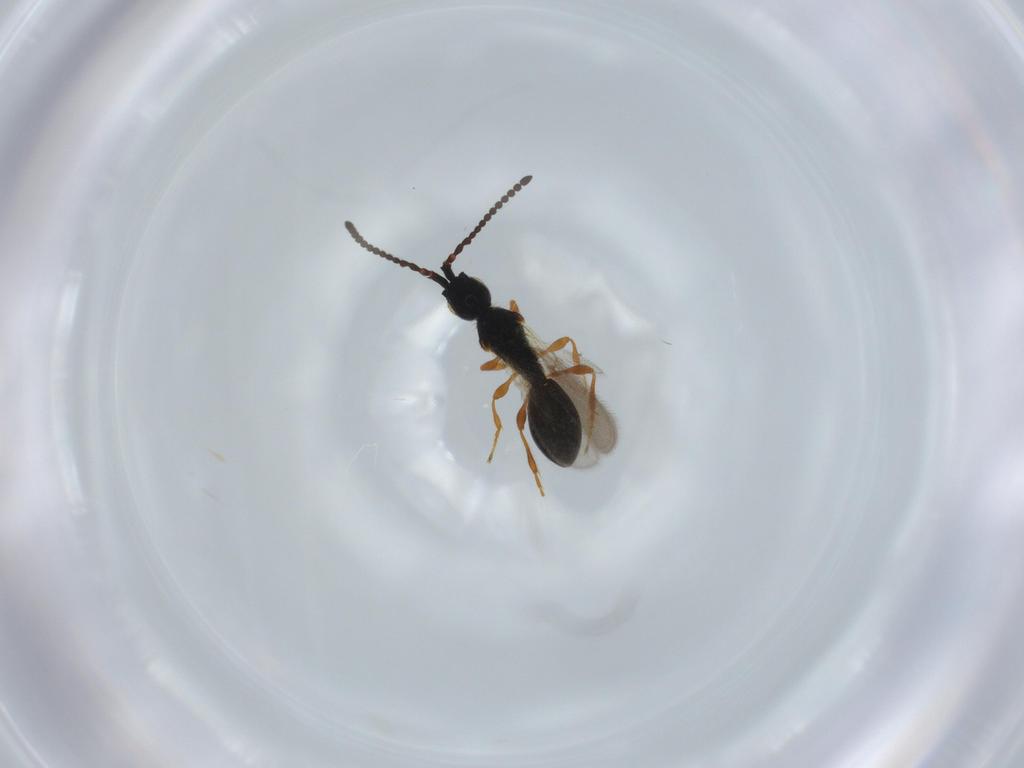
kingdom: Animalia
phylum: Arthropoda
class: Insecta
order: Hymenoptera
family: Diapriidae
